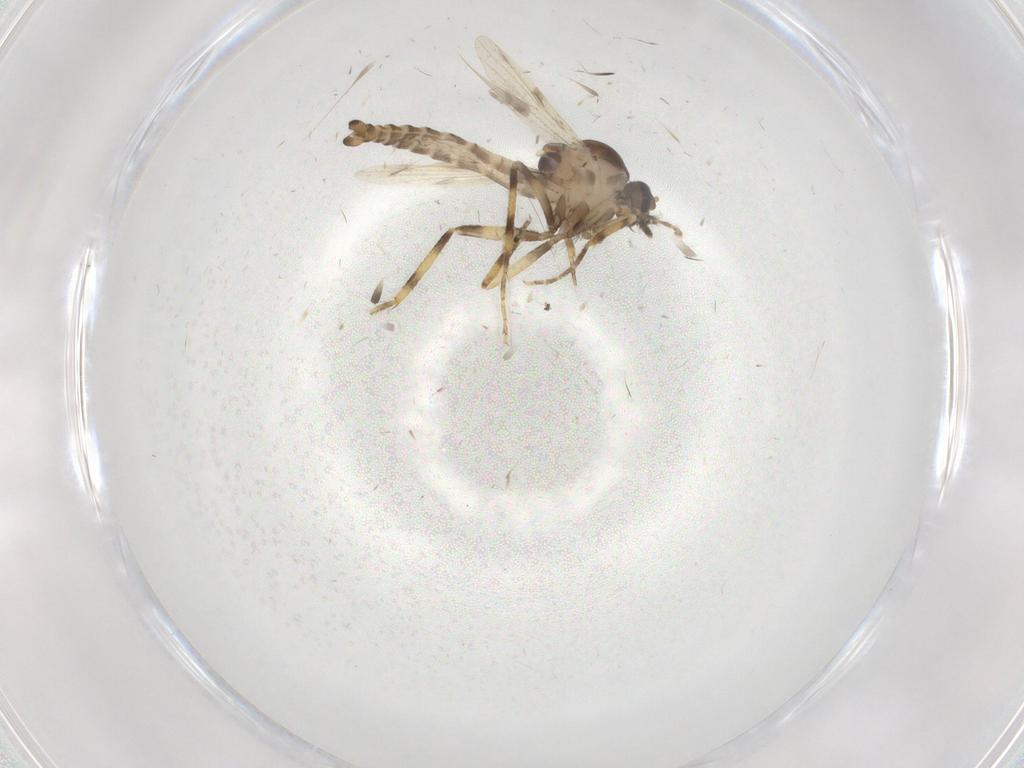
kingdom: Animalia
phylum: Arthropoda
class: Insecta
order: Diptera
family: Ceratopogonidae
